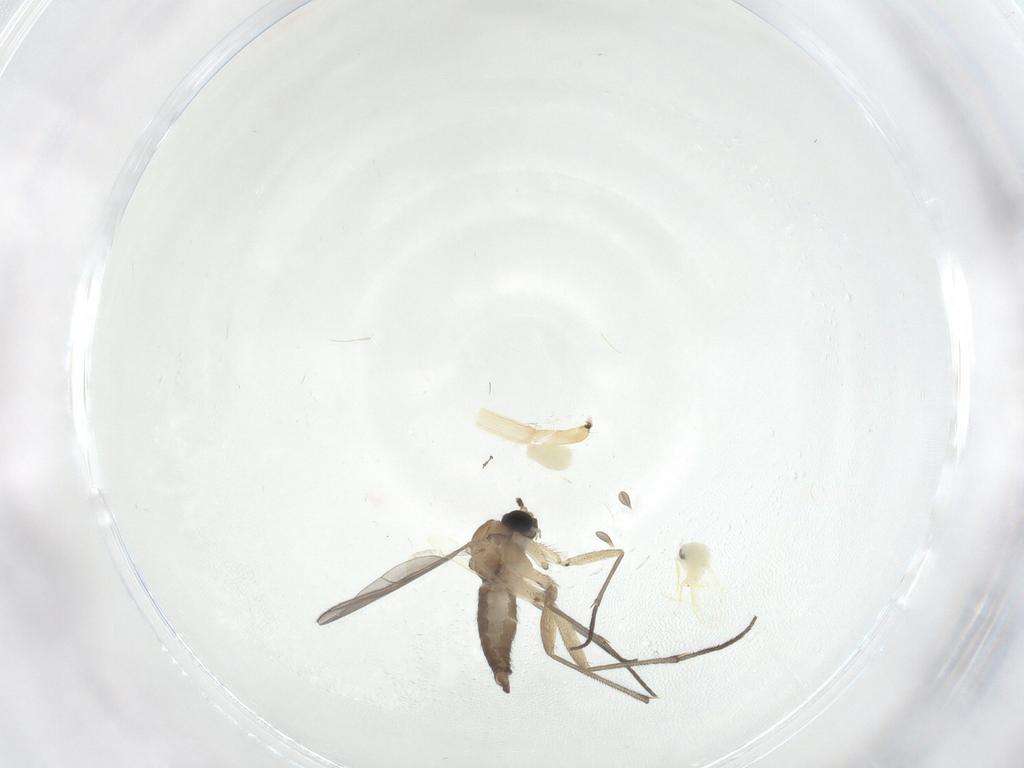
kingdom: Animalia
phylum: Arthropoda
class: Insecta
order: Hemiptera
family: Aleyrodidae
